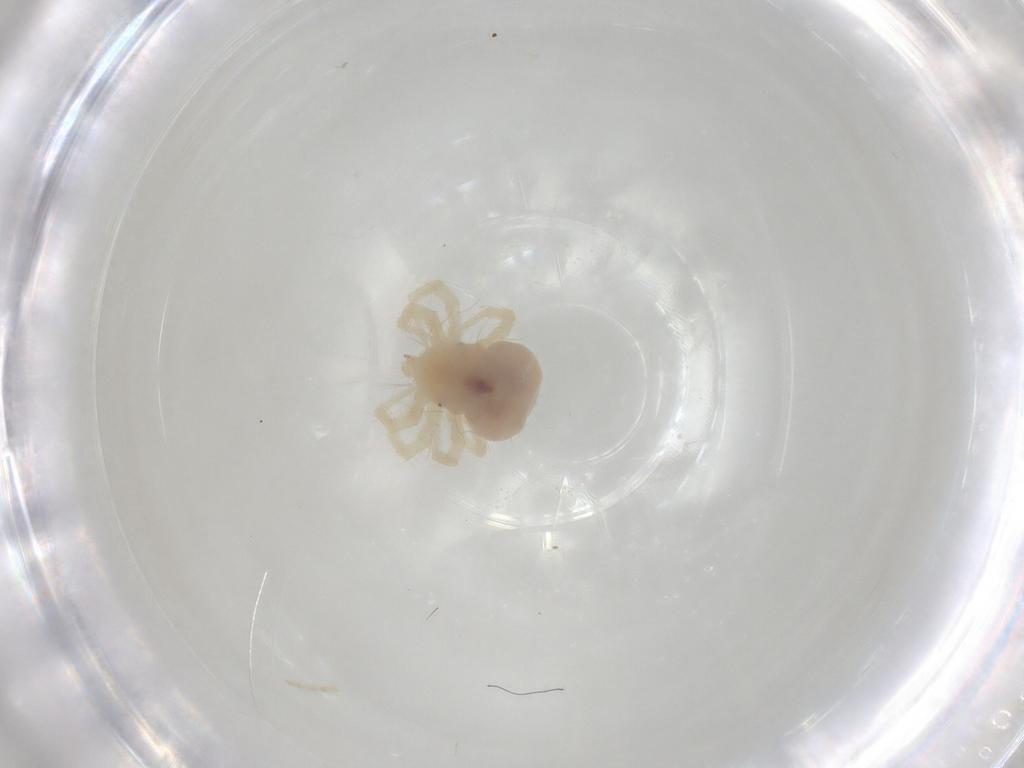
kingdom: Animalia
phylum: Arthropoda
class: Arachnida
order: Trombidiformes
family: Anystidae
